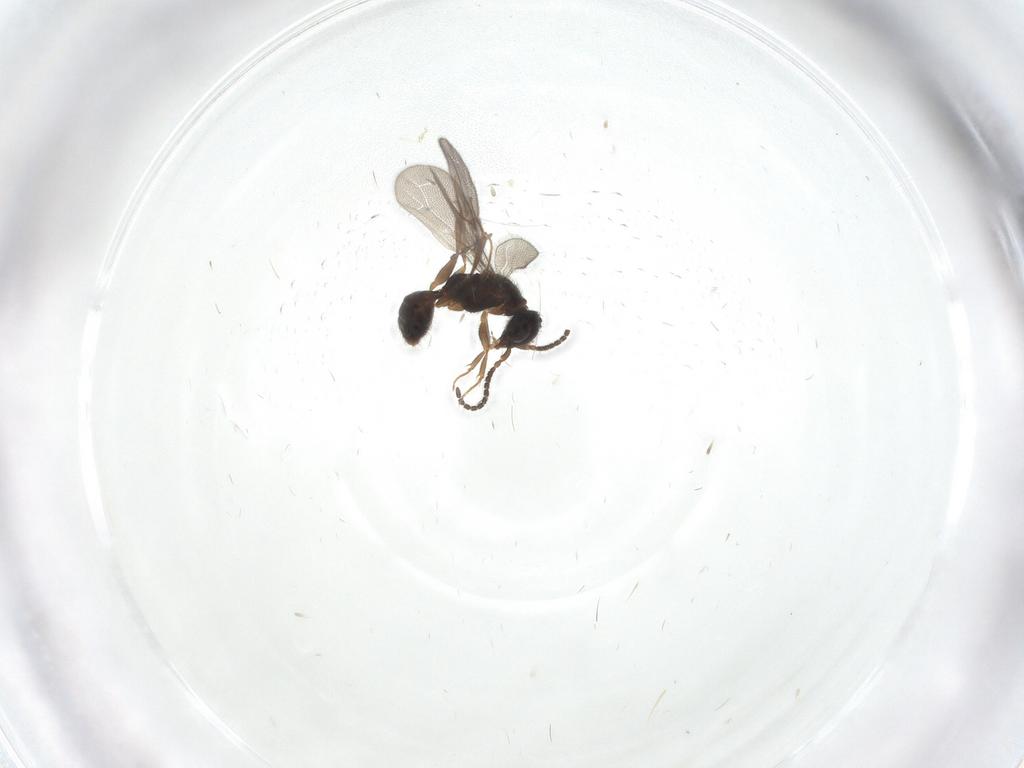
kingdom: Animalia
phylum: Arthropoda
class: Insecta
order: Hymenoptera
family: Bethylidae
